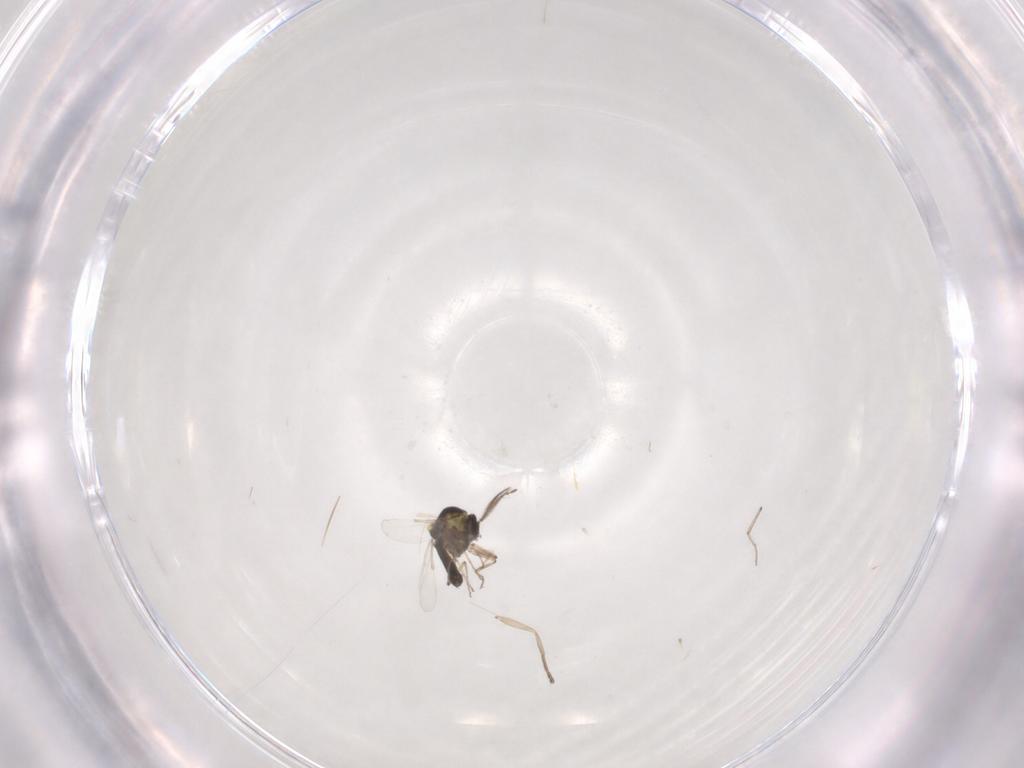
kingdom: Animalia
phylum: Arthropoda
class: Insecta
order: Diptera
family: Ceratopogonidae
